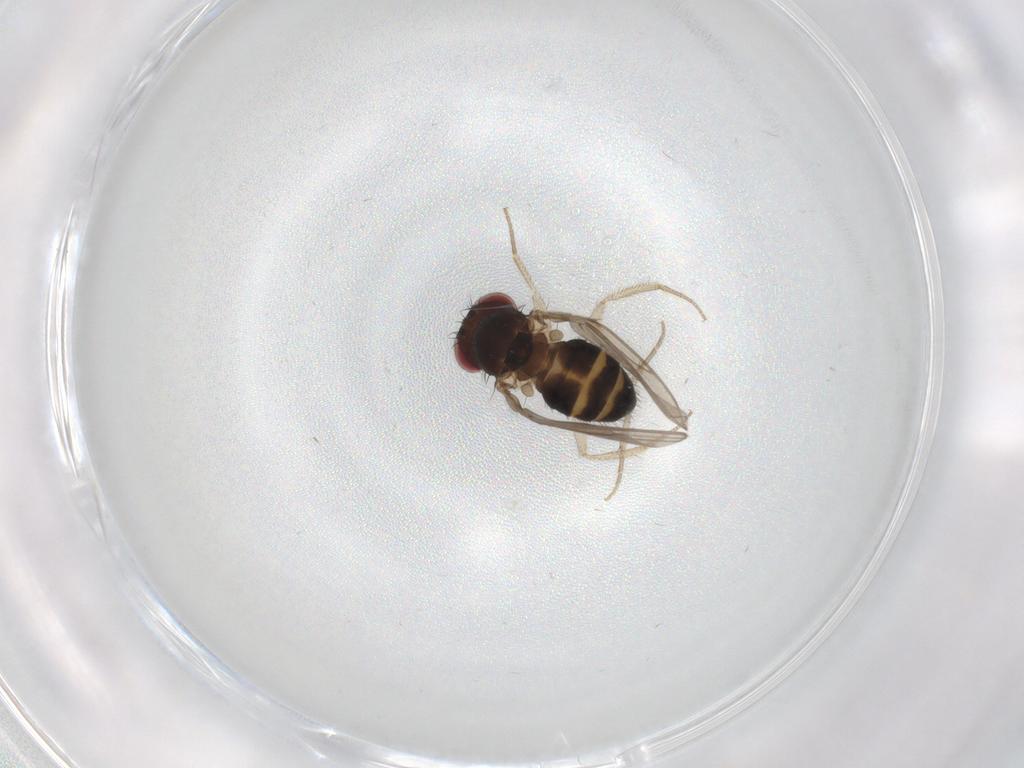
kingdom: Animalia
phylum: Arthropoda
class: Insecta
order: Diptera
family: Drosophilidae
